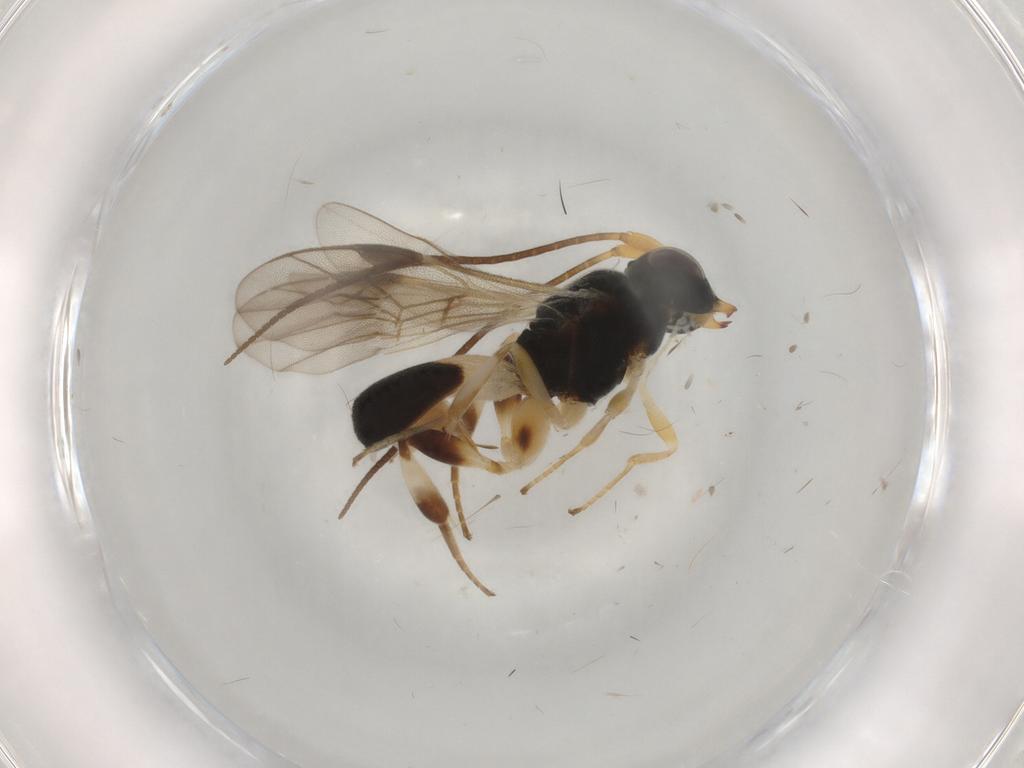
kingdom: Animalia
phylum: Arthropoda
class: Insecta
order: Hymenoptera
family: Braconidae
